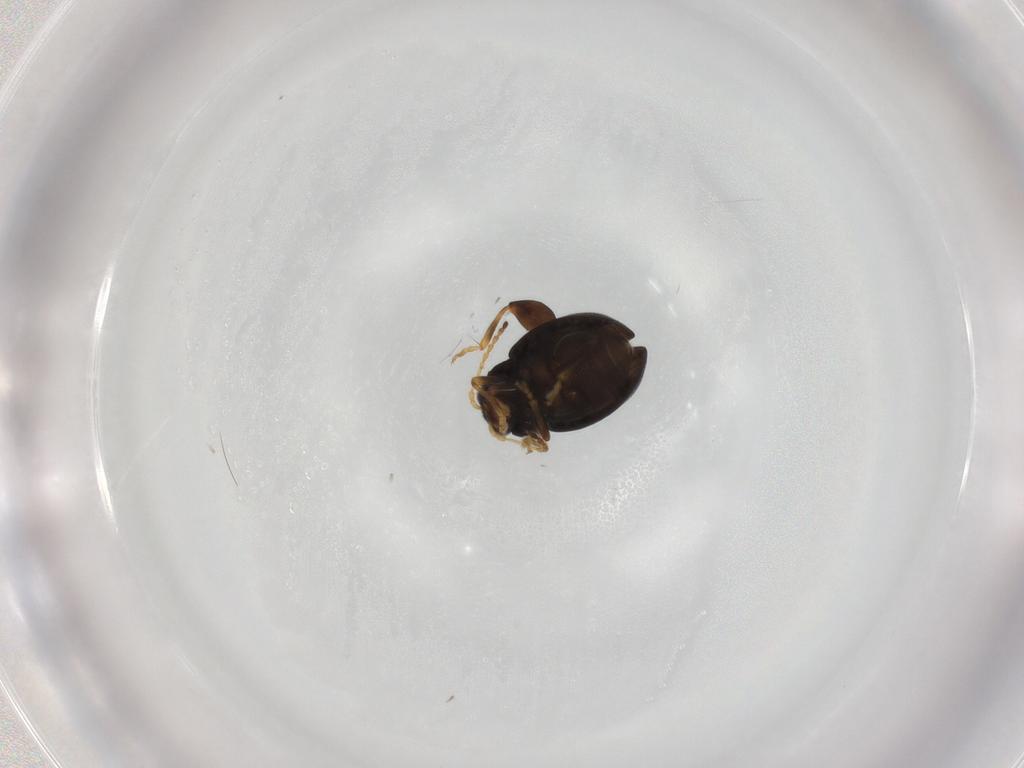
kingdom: Animalia
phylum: Arthropoda
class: Insecta
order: Coleoptera
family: Chrysomelidae
